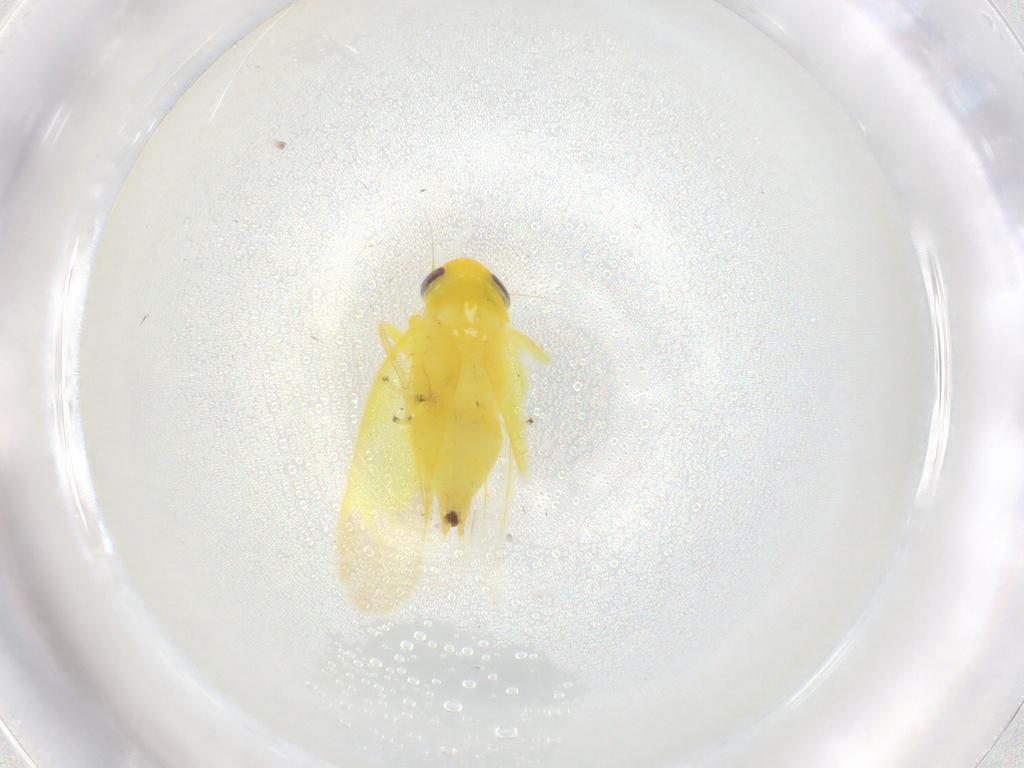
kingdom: Animalia
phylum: Arthropoda
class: Insecta
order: Hemiptera
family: Cicadellidae
